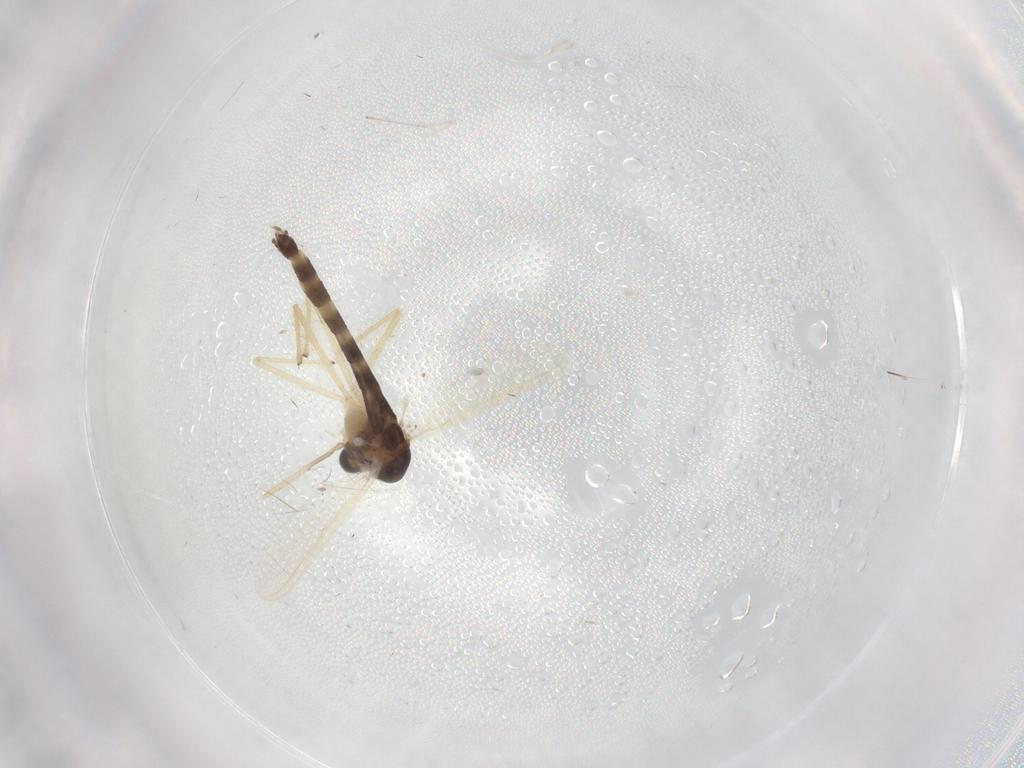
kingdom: Animalia
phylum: Arthropoda
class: Insecta
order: Diptera
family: Chironomidae
